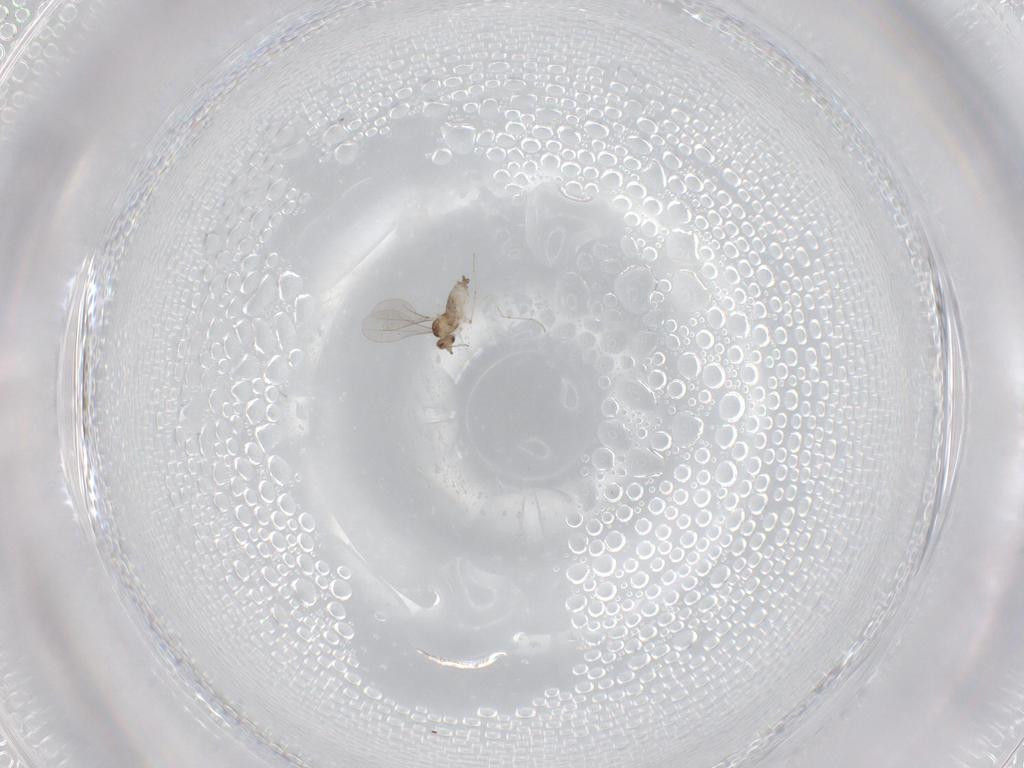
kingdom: Animalia
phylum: Arthropoda
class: Insecta
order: Diptera
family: Cecidomyiidae
